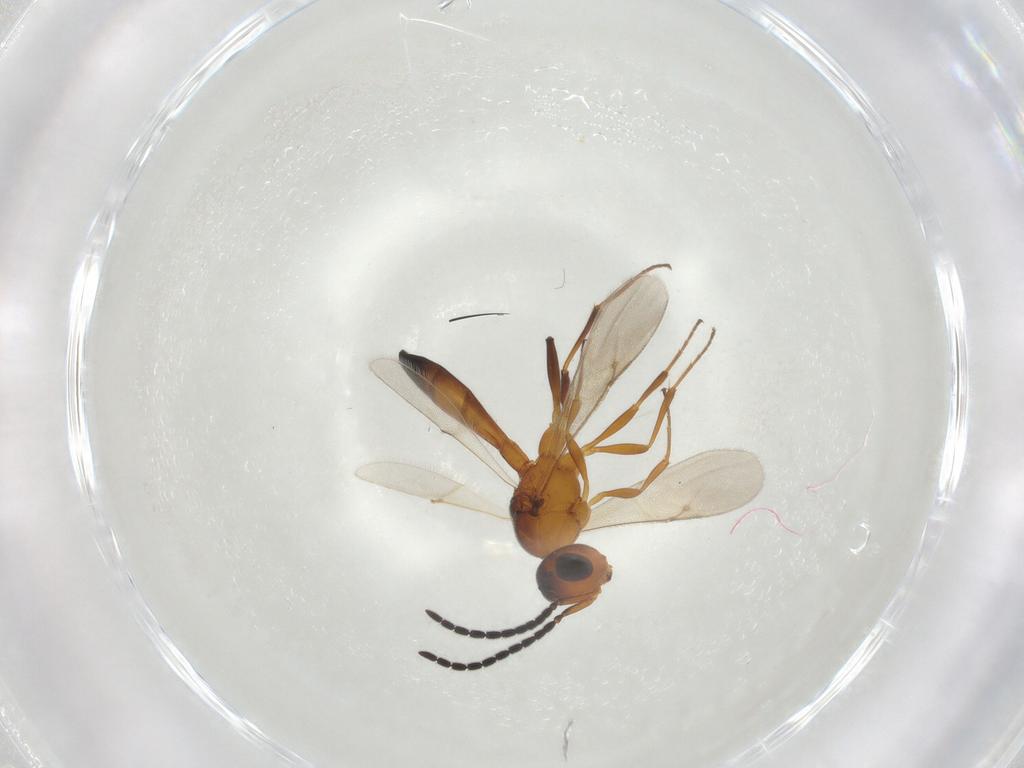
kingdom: Animalia
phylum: Arthropoda
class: Insecta
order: Hymenoptera
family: Scelionidae
